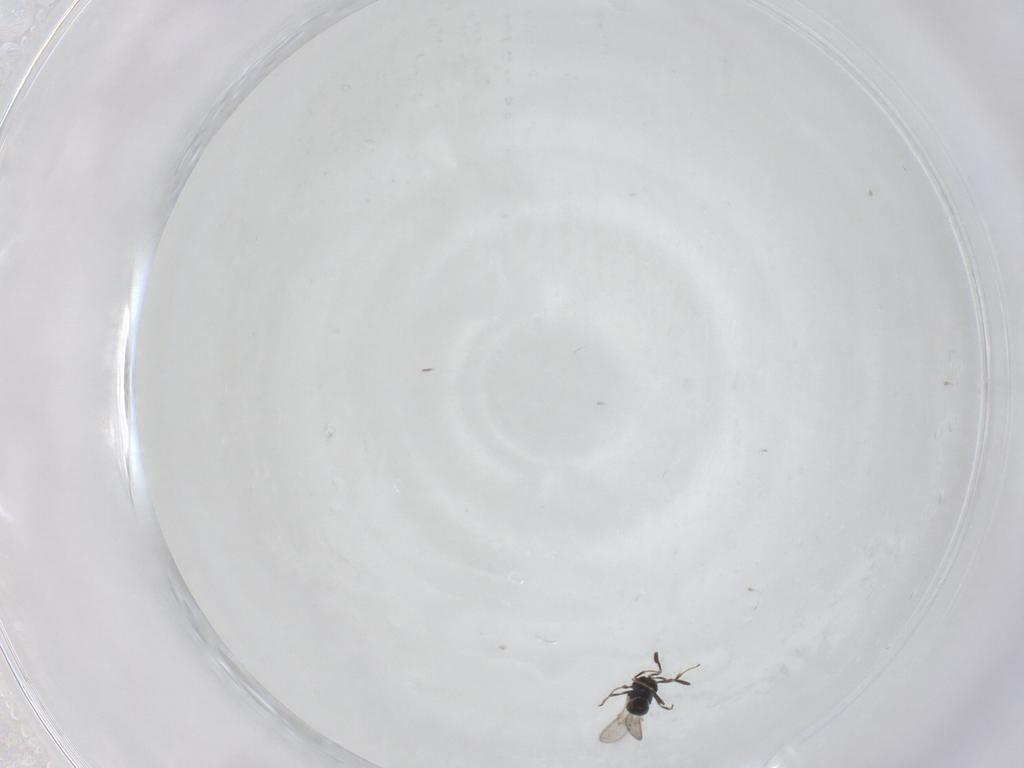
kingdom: Animalia
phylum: Arthropoda
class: Insecta
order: Hymenoptera
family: Scelionidae
